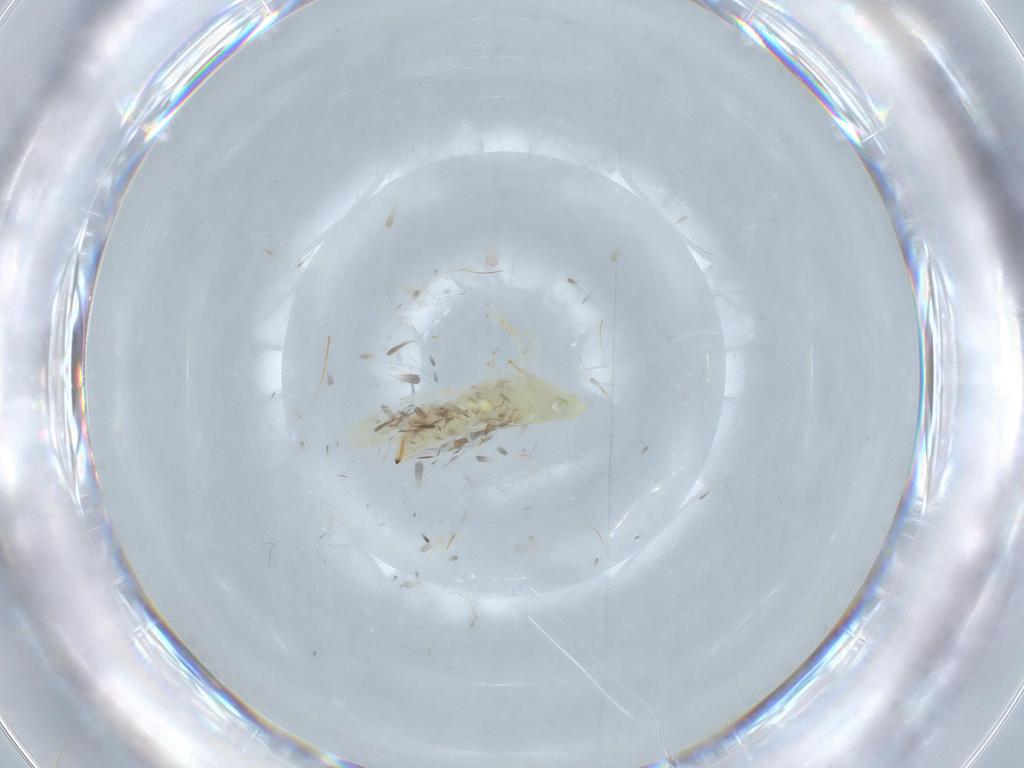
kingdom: Animalia
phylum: Arthropoda
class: Insecta
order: Hemiptera
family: Cicadellidae
